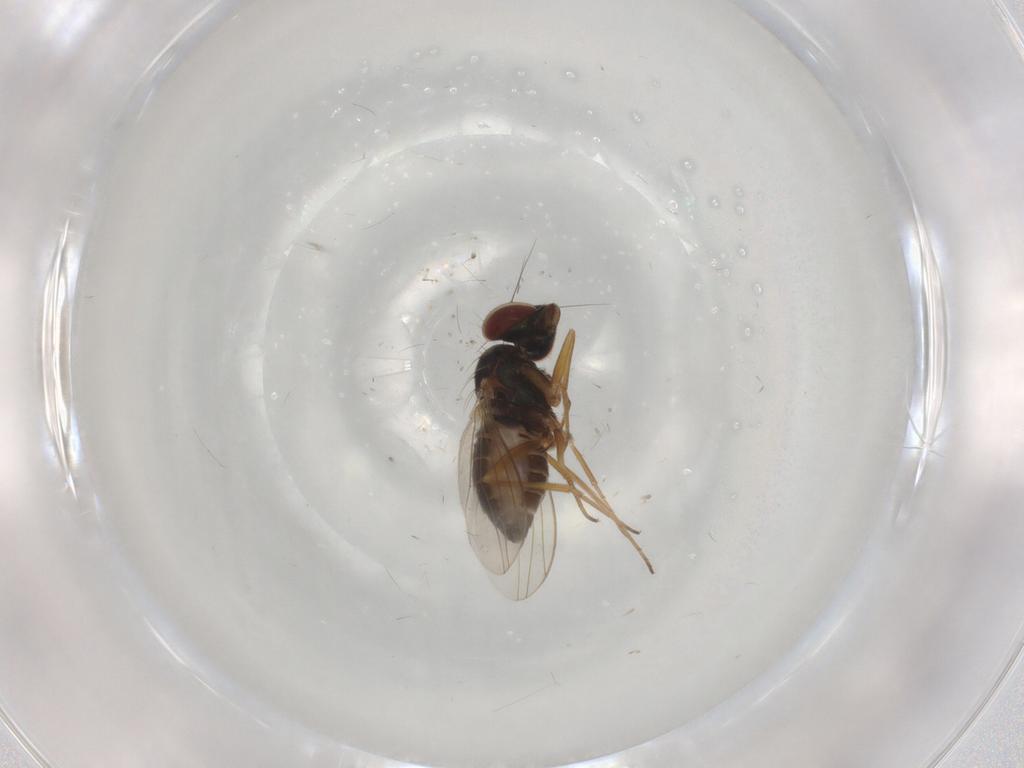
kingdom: Animalia
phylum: Arthropoda
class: Insecta
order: Diptera
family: Dolichopodidae
